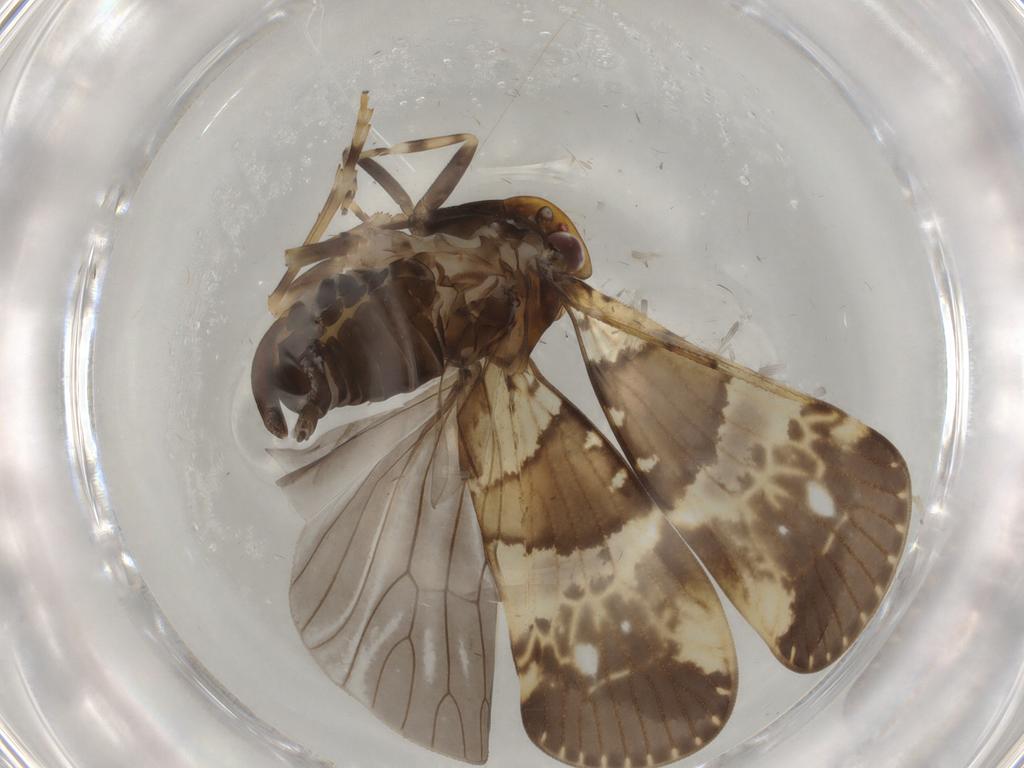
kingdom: Animalia
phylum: Arthropoda
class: Insecta
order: Hemiptera
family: Cixiidae
